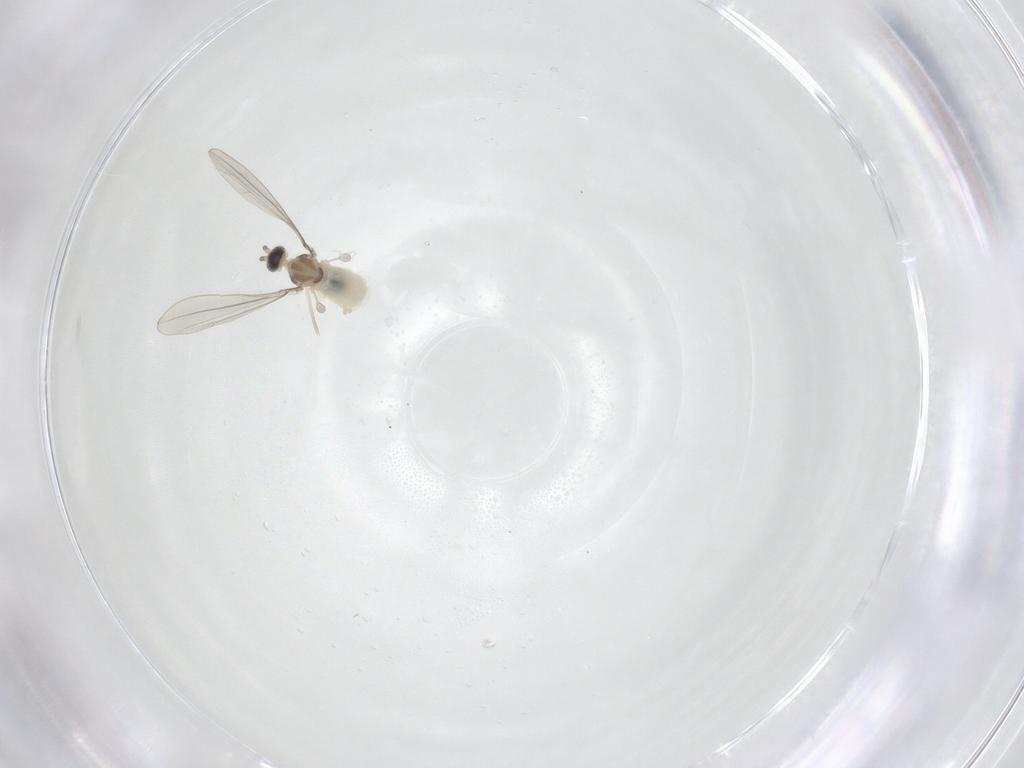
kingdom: Animalia
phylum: Arthropoda
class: Insecta
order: Diptera
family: Cecidomyiidae
